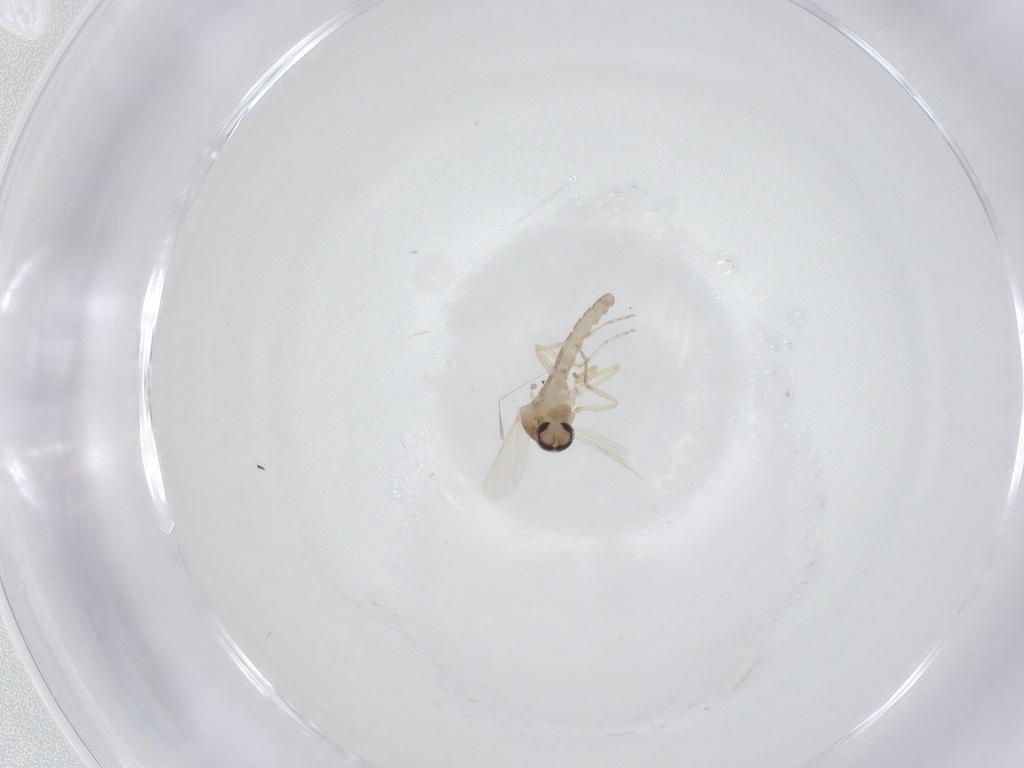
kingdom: Animalia
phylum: Arthropoda
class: Insecta
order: Diptera
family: Ceratopogonidae
